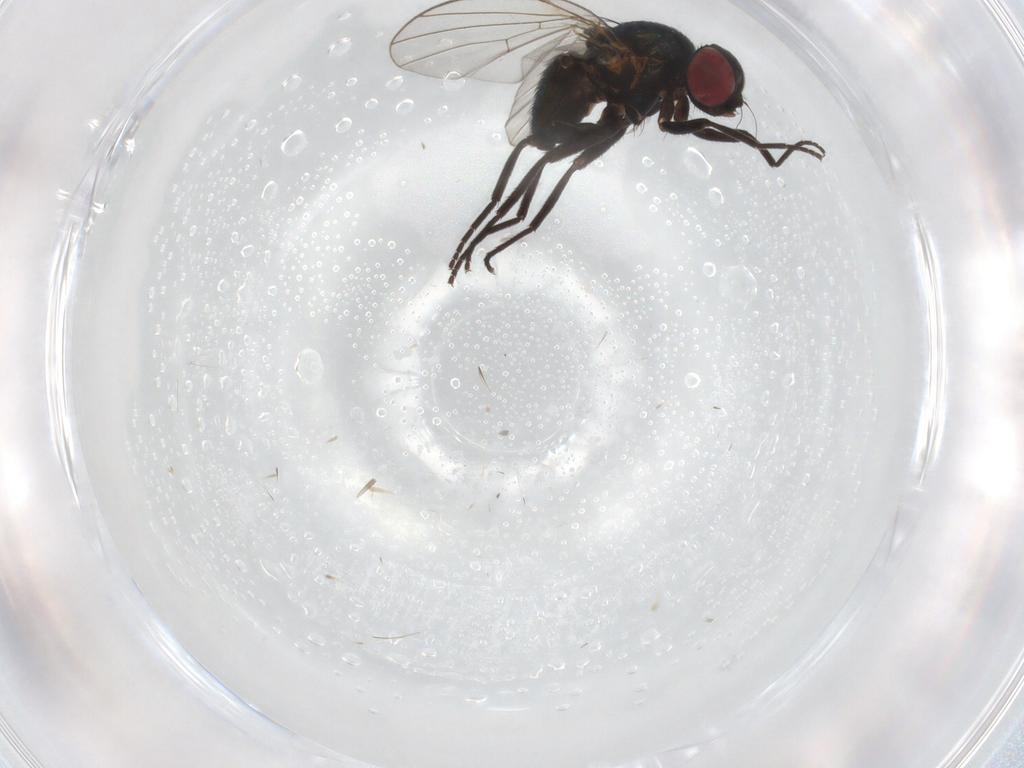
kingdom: Animalia
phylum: Arthropoda
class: Insecta
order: Diptera
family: Agromyzidae
